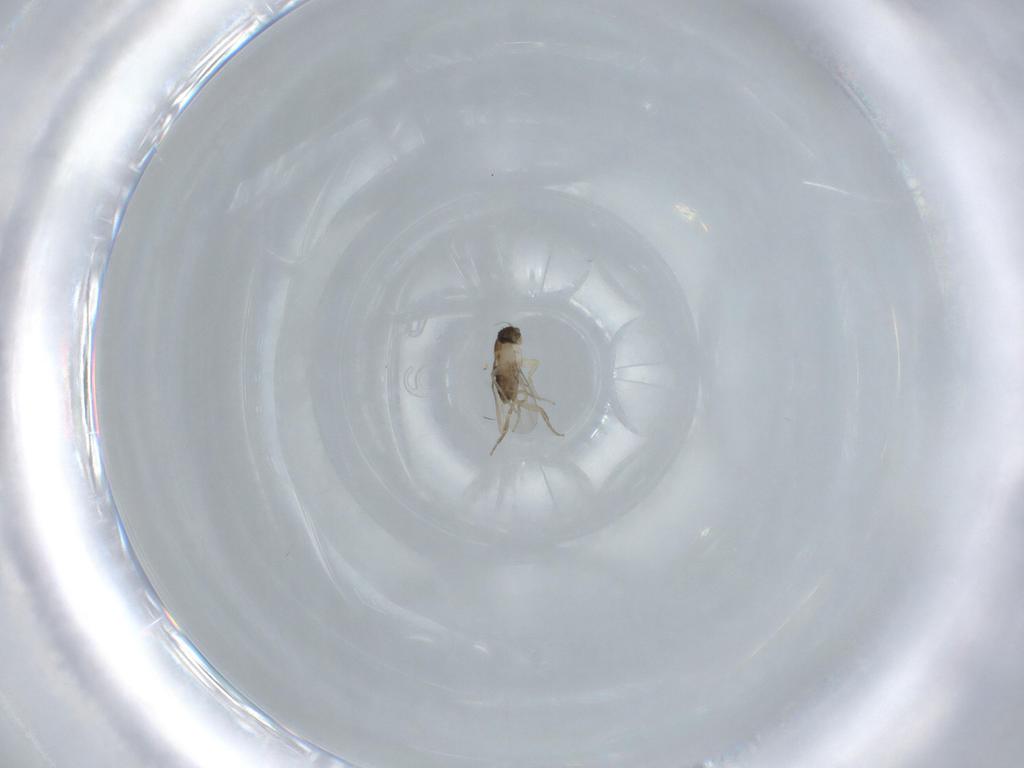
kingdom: Animalia
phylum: Arthropoda
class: Insecta
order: Diptera
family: Phoridae
